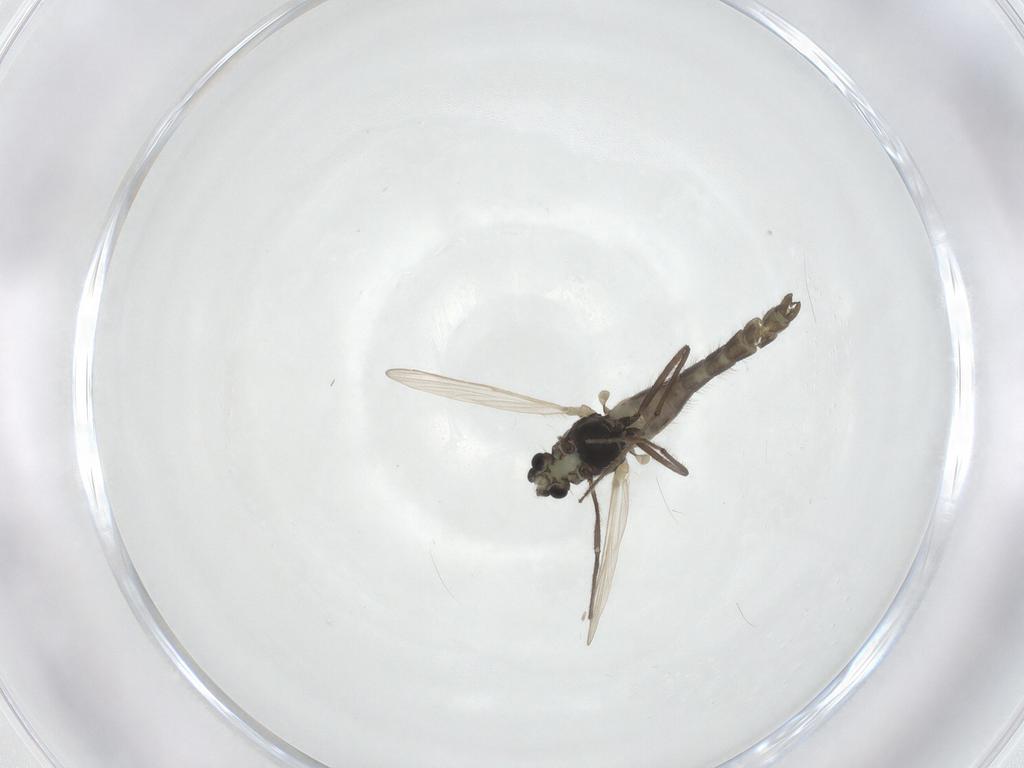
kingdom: Animalia
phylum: Arthropoda
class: Insecta
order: Diptera
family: Chironomidae
